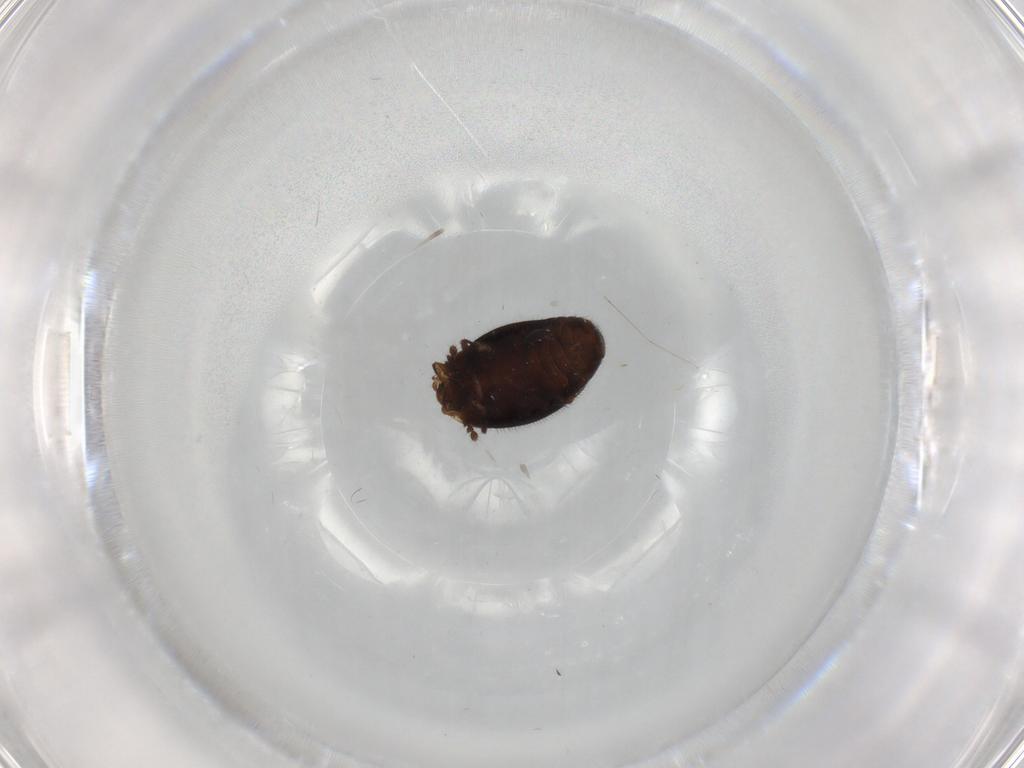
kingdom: Animalia
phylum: Arthropoda
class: Insecta
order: Coleoptera
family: Corylophidae
